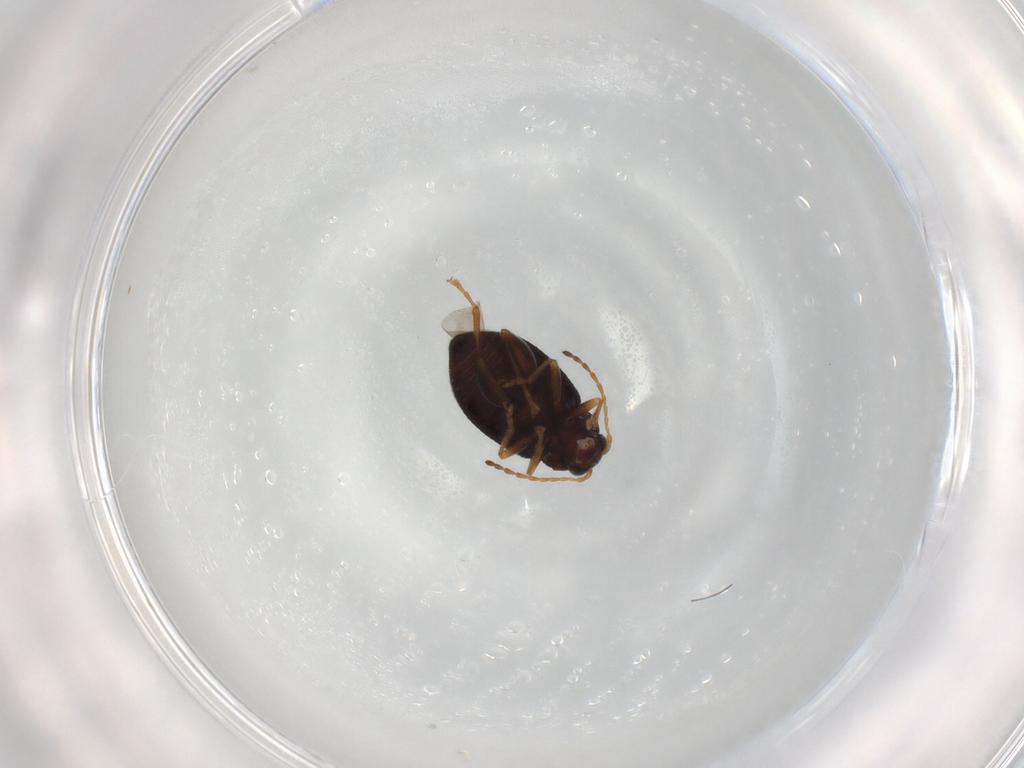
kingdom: Animalia
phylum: Arthropoda
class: Insecta
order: Coleoptera
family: Chrysomelidae
